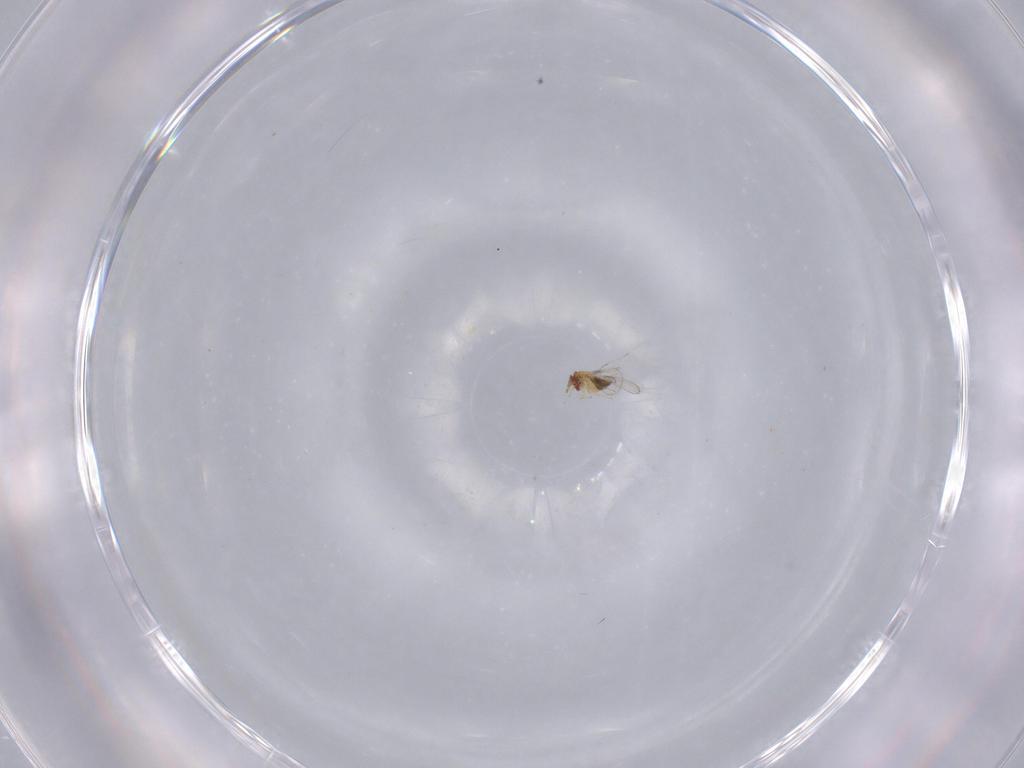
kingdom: Animalia
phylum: Arthropoda
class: Insecta
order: Hymenoptera
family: Trichogrammatidae
